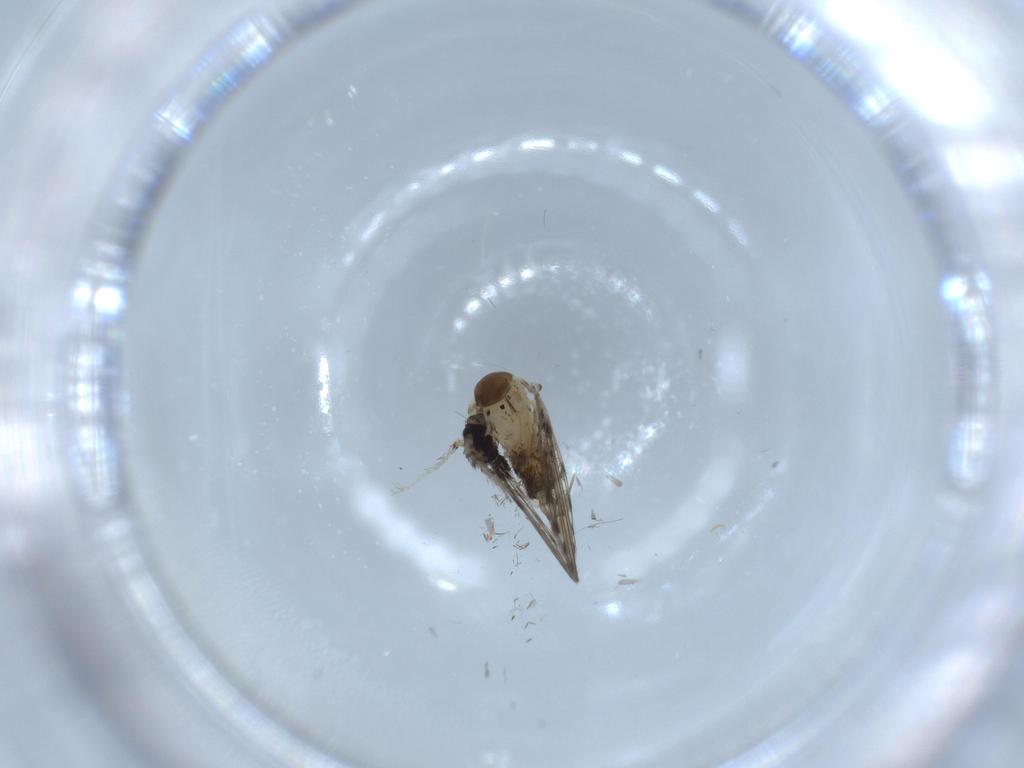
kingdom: Animalia
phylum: Arthropoda
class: Insecta
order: Diptera
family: Psychodidae
